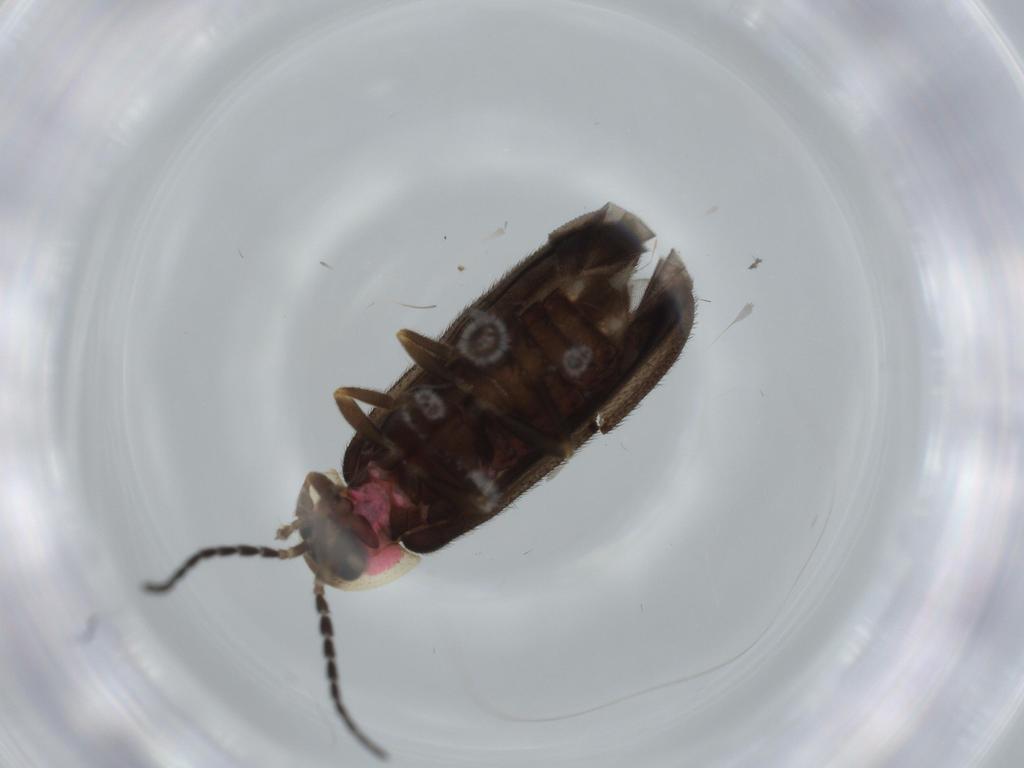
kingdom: Animalia
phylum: Arthropoda
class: Insecta
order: Coleoptera
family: Lampyridae
